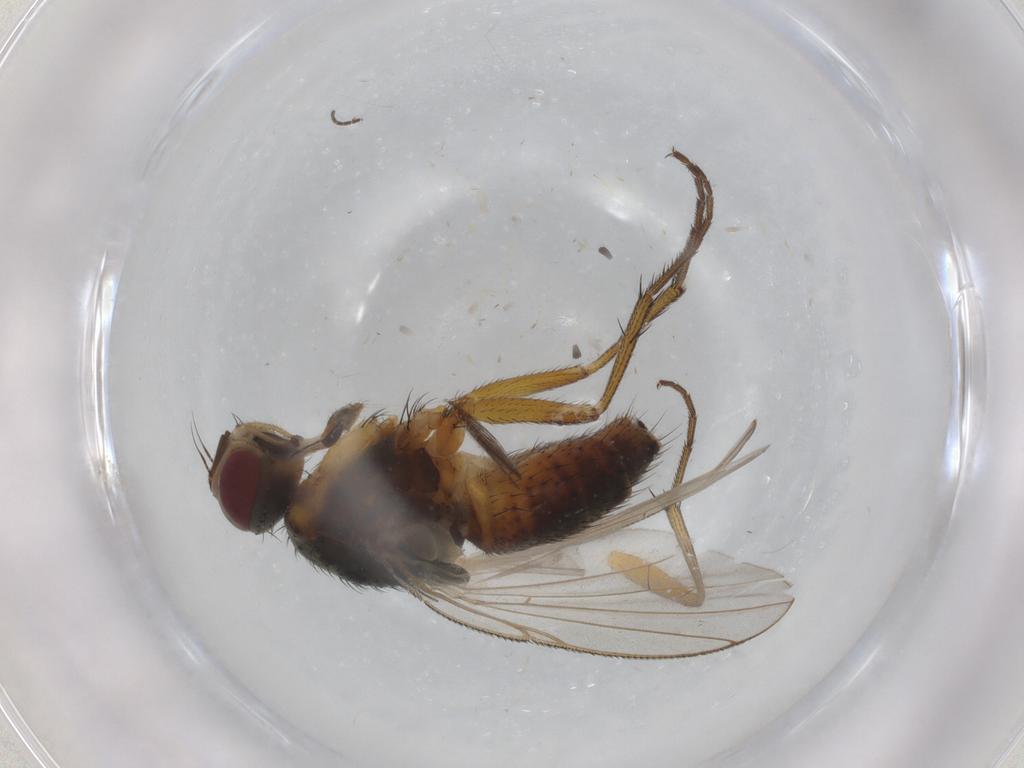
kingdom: Animalia
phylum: Arthropoda
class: Insecta
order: Diptera
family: Muscidae
